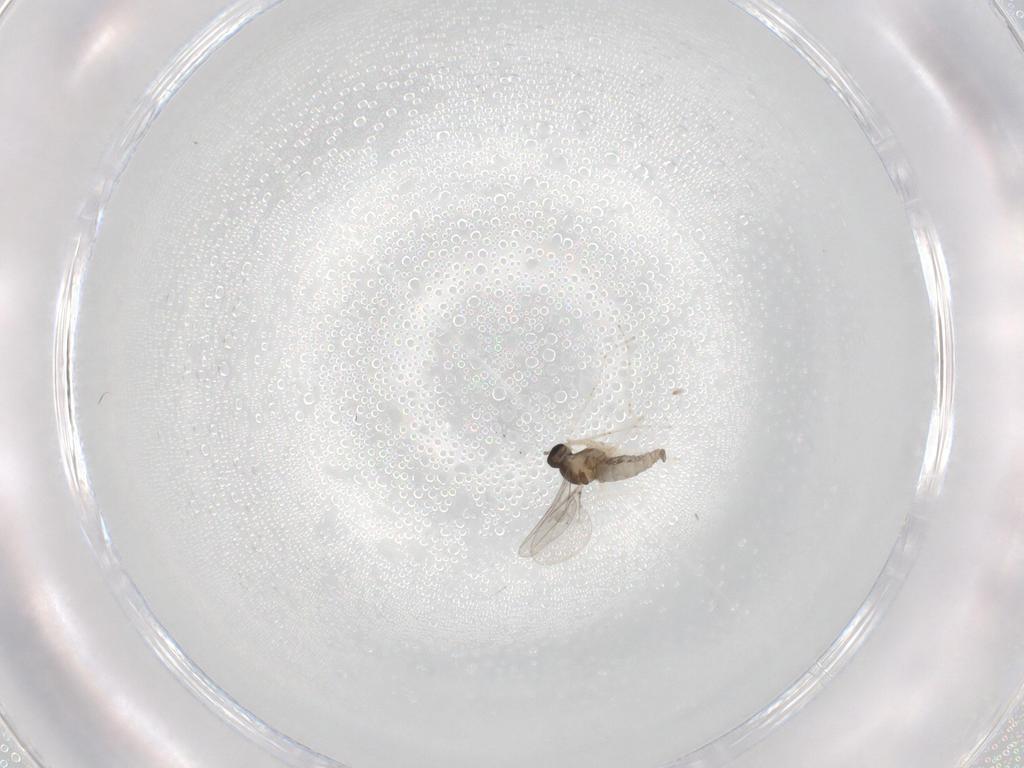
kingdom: Animalia
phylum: Arthropoda
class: Insecta
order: Diptera
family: Cecidomyiidae
